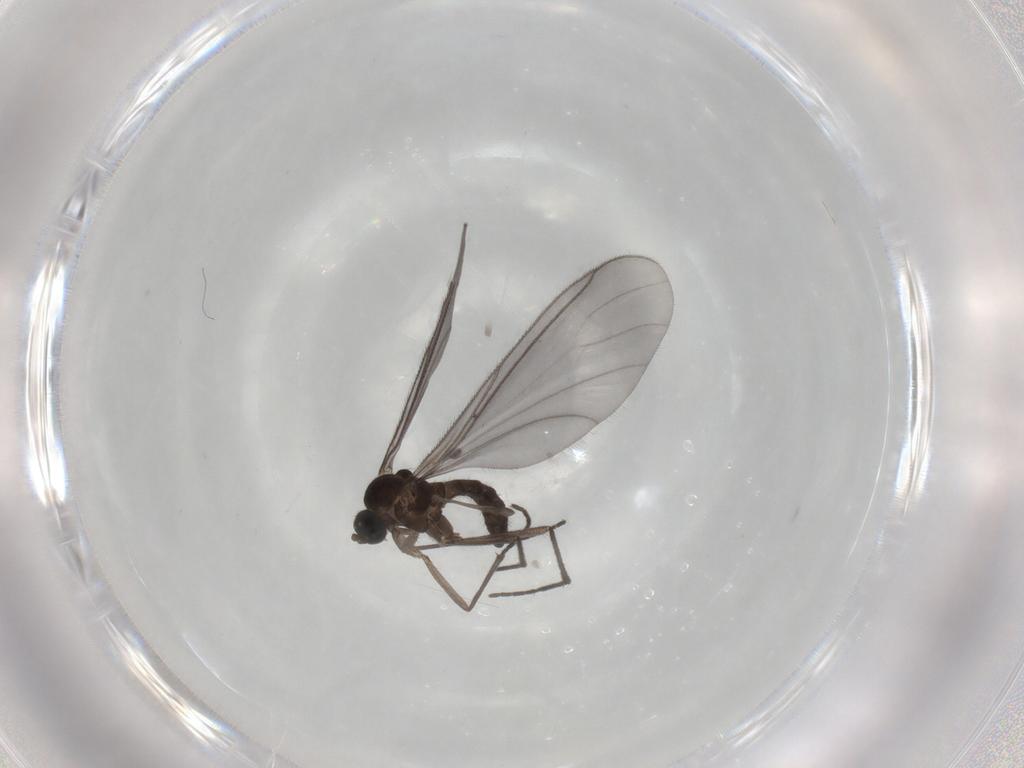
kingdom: Animalia
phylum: Arthropoda
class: Insecta
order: Diptera
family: Sciaridae
